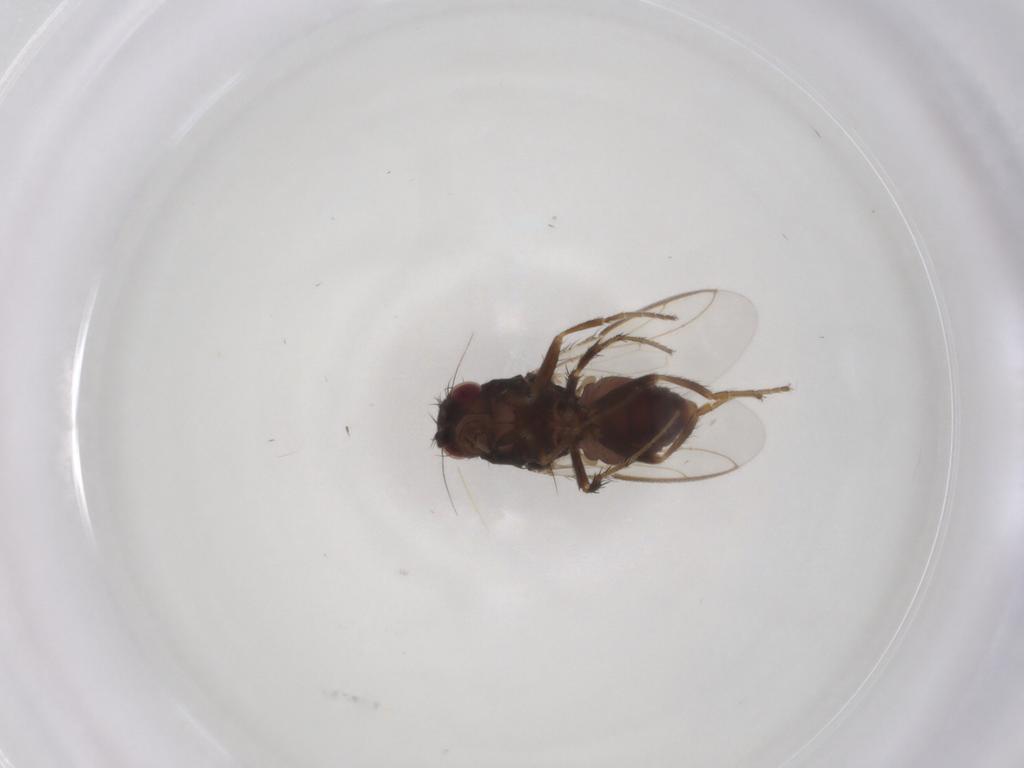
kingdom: Animalia
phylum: Arthropoda
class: Insecta
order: Diptera
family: Sphaeroceridae
